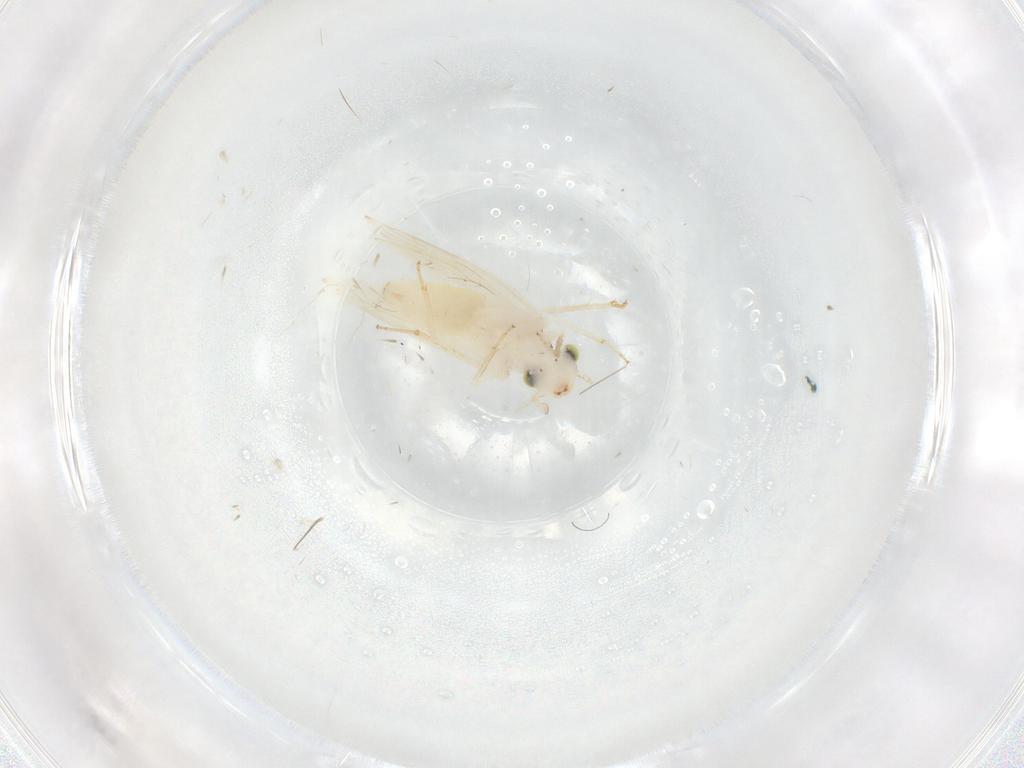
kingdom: Animalia
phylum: Arthropoda
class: Insecta
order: Psocodea
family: Lepidopsocidae
